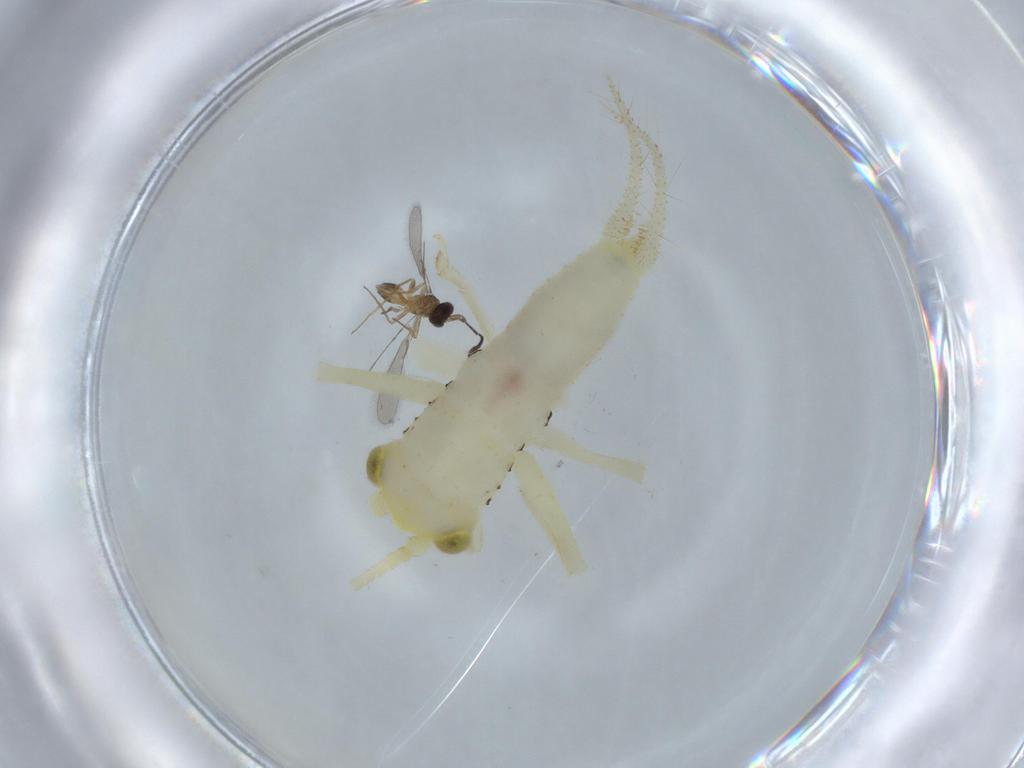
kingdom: Animalia
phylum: Arthropoda
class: Insecta
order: Orthoptera
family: Trigonidiidae
